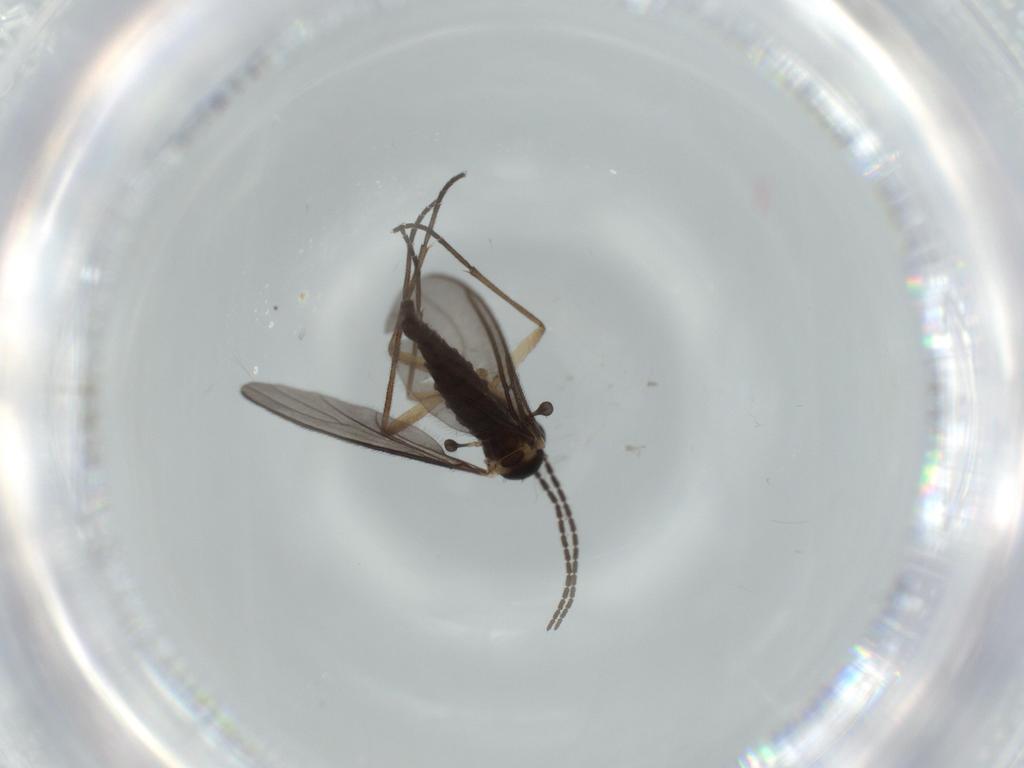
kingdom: Animalia
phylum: Arthropoda
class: Insecta
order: Diptera
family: Sciaridae
